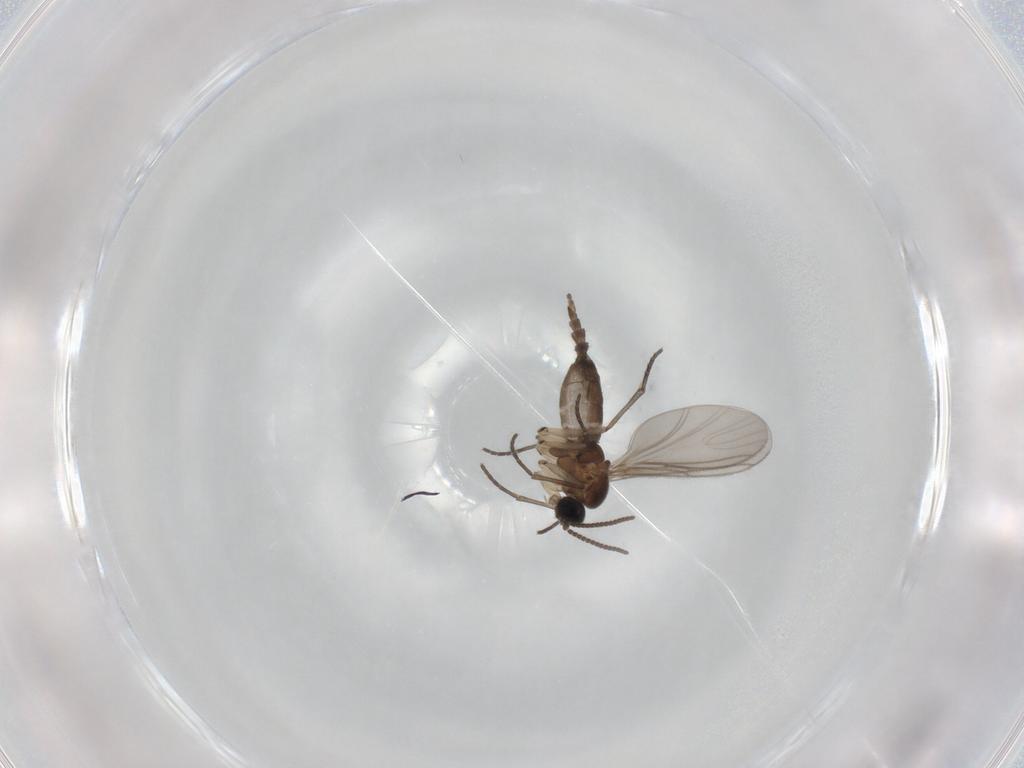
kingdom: Animalia
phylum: Arthropoda
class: Insecta
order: Diptera
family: Sciaridae
